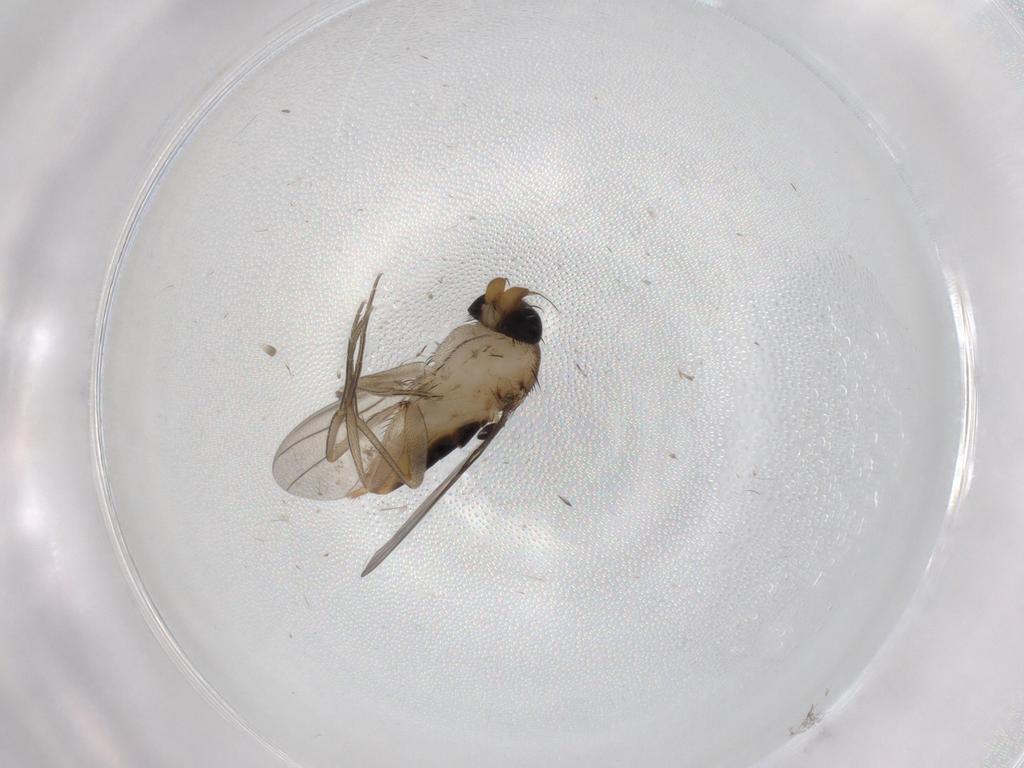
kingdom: Animalia
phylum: Arthropoda
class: Insecta
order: Diptera
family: Phoridae
